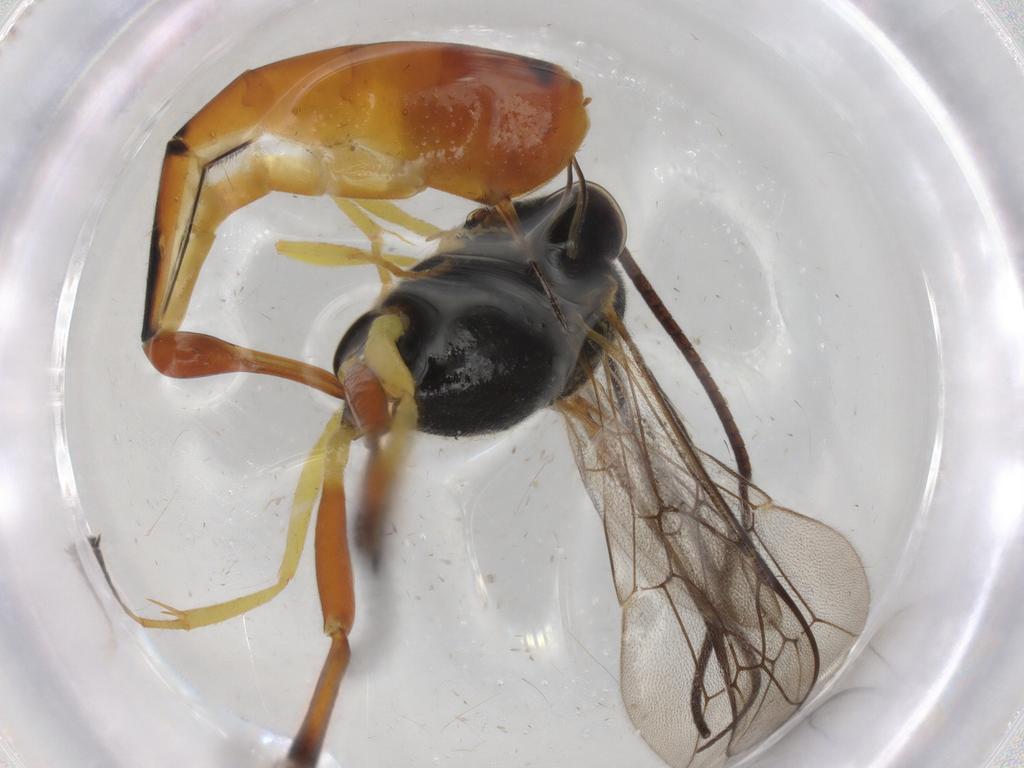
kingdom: Animalia
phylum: Arthropoda
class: Insecta
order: Hymenoptera
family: Ichneumonidae
